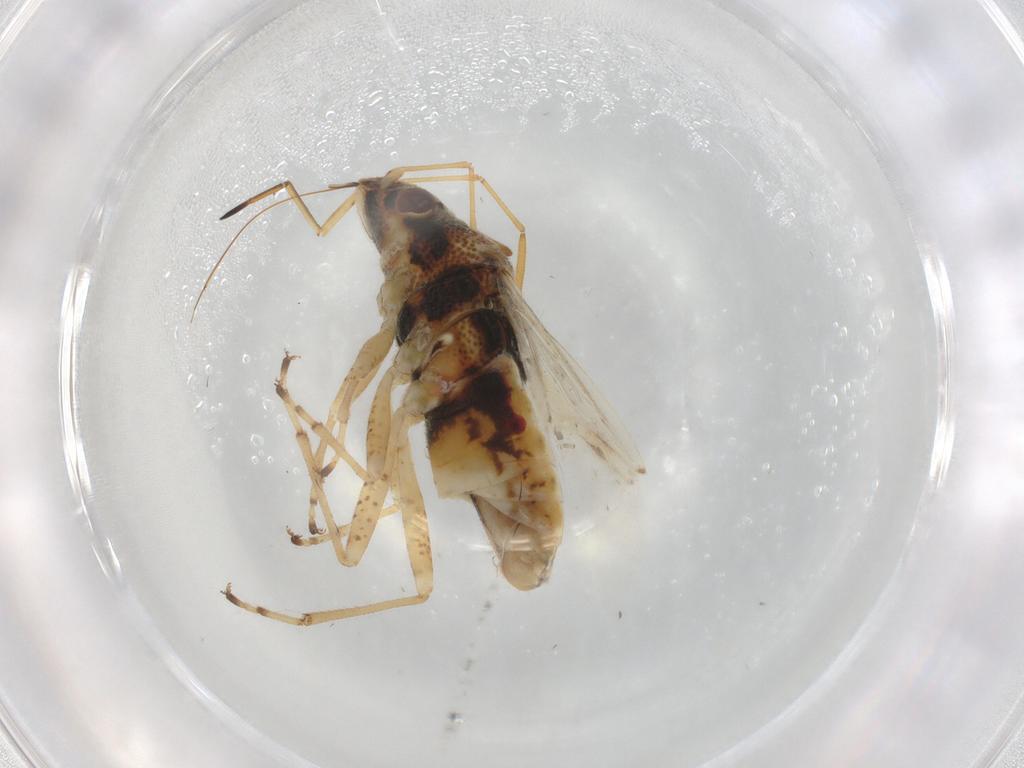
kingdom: Animalia
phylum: Arthropoda
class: Insecta
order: Hemiptera
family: Lygaeidae
